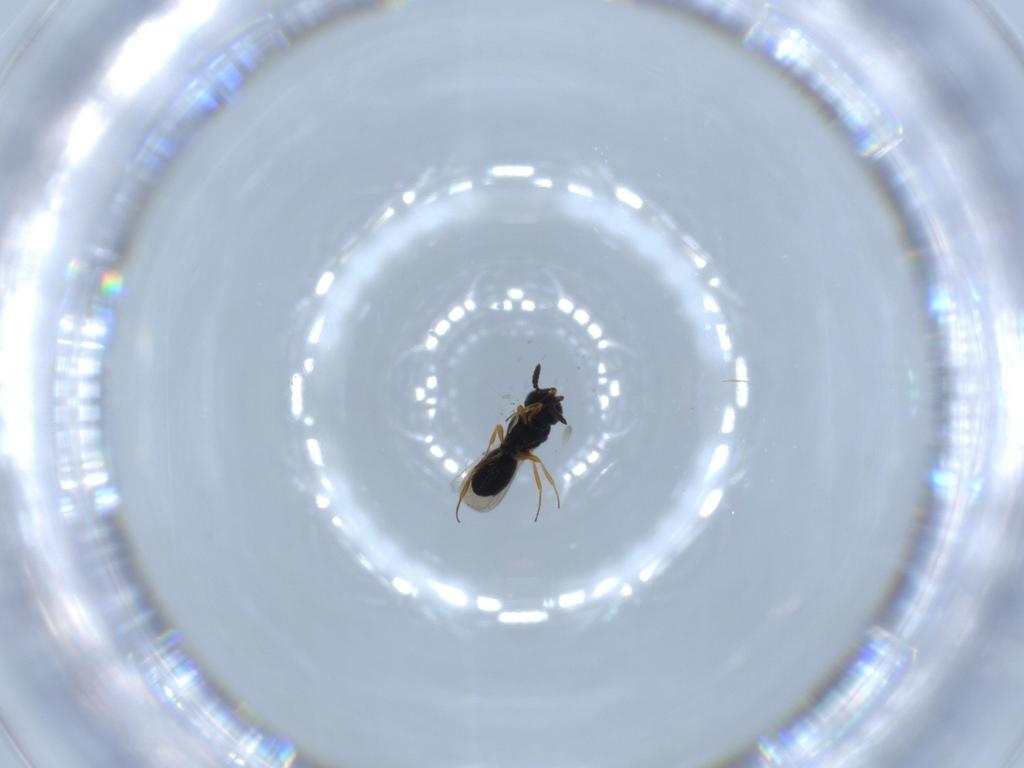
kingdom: Animalia
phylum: Arthropoda
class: Insecta
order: Hymenoptera
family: Scelionidae
